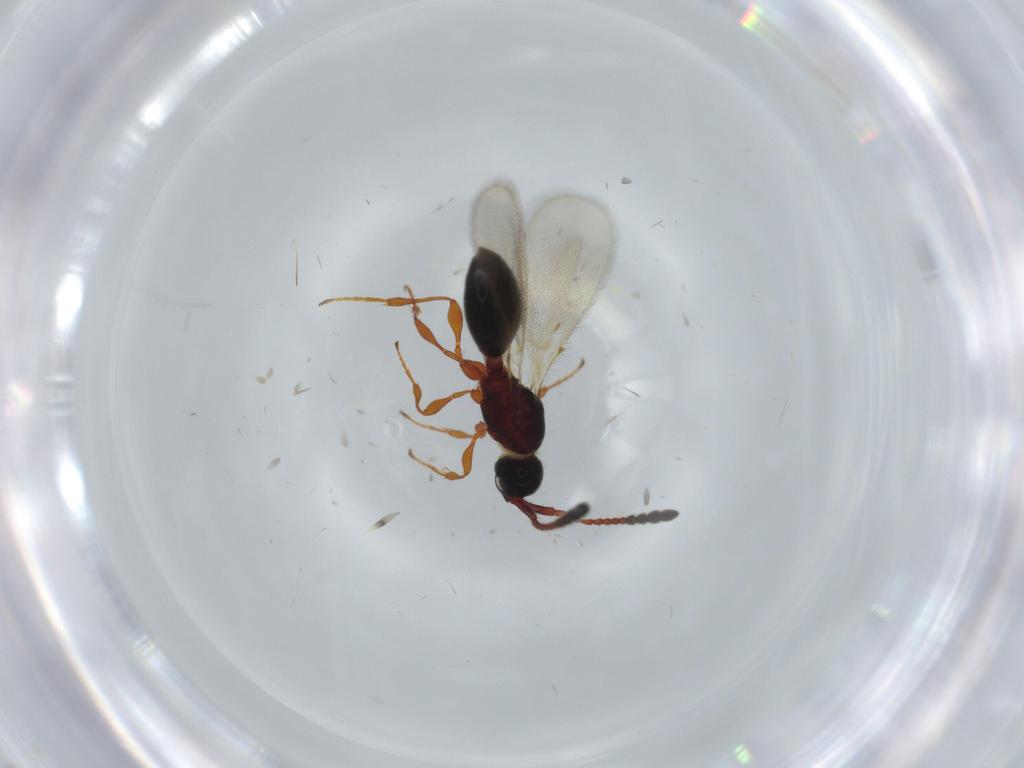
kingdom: Animalia
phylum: Arthropoda
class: Insecta
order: Hymenoptera
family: Diapriidae
